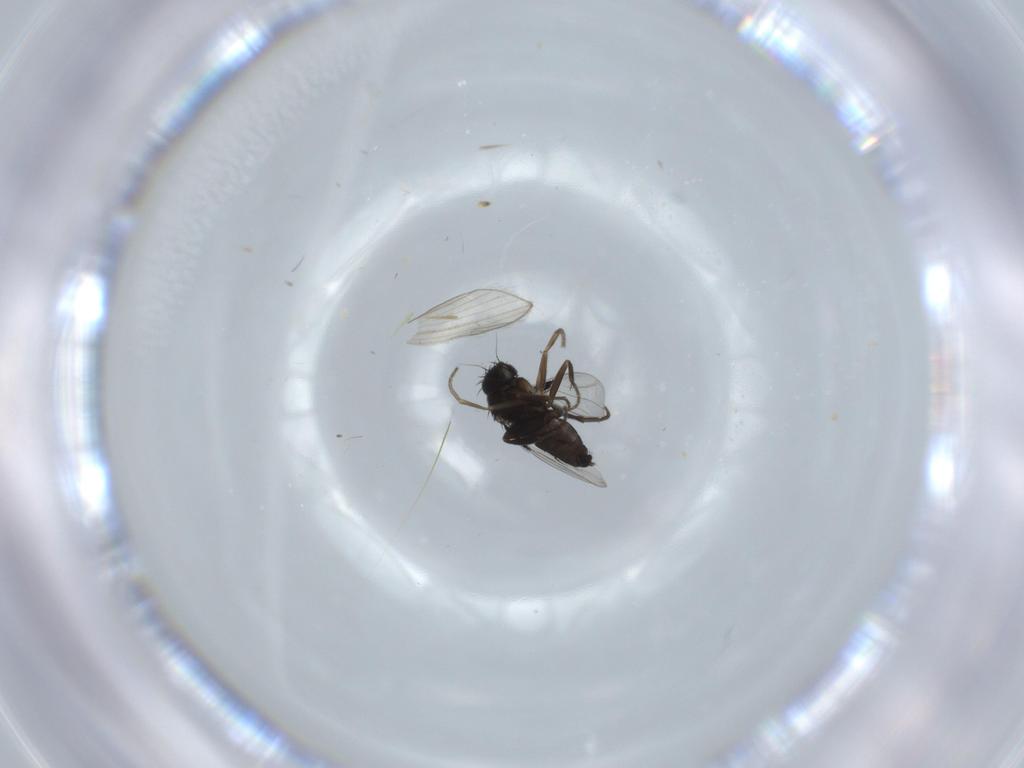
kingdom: Animalia
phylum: Arthropoda
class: Insecta
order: Diptera
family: Phoridae
